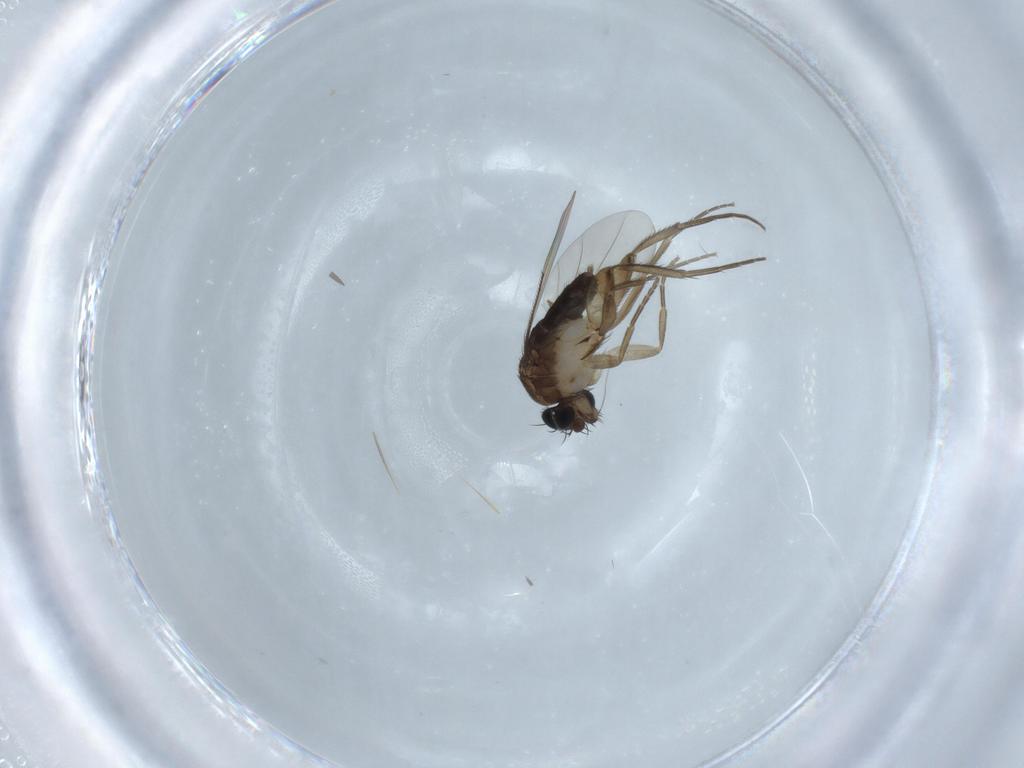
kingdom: Animalia
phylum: Arthropoda
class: Insecta
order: Diptera
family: Phoridae
